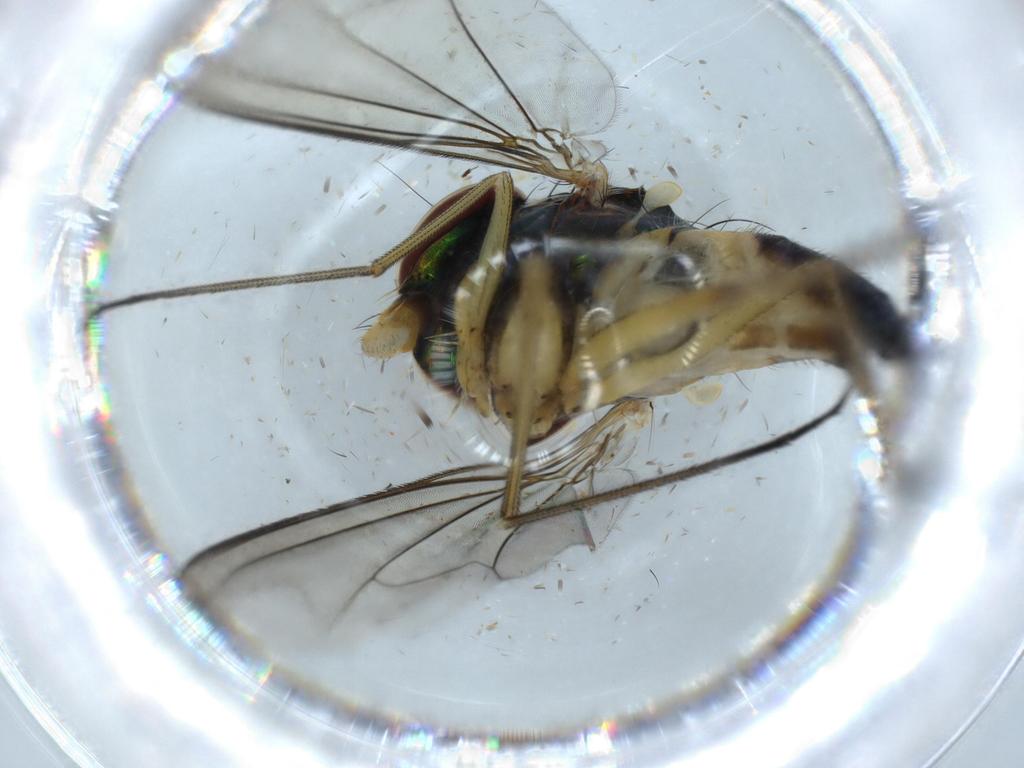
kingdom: Animalia
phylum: Arthropoda
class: Insecta
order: Diptera
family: Dolichopodidae
